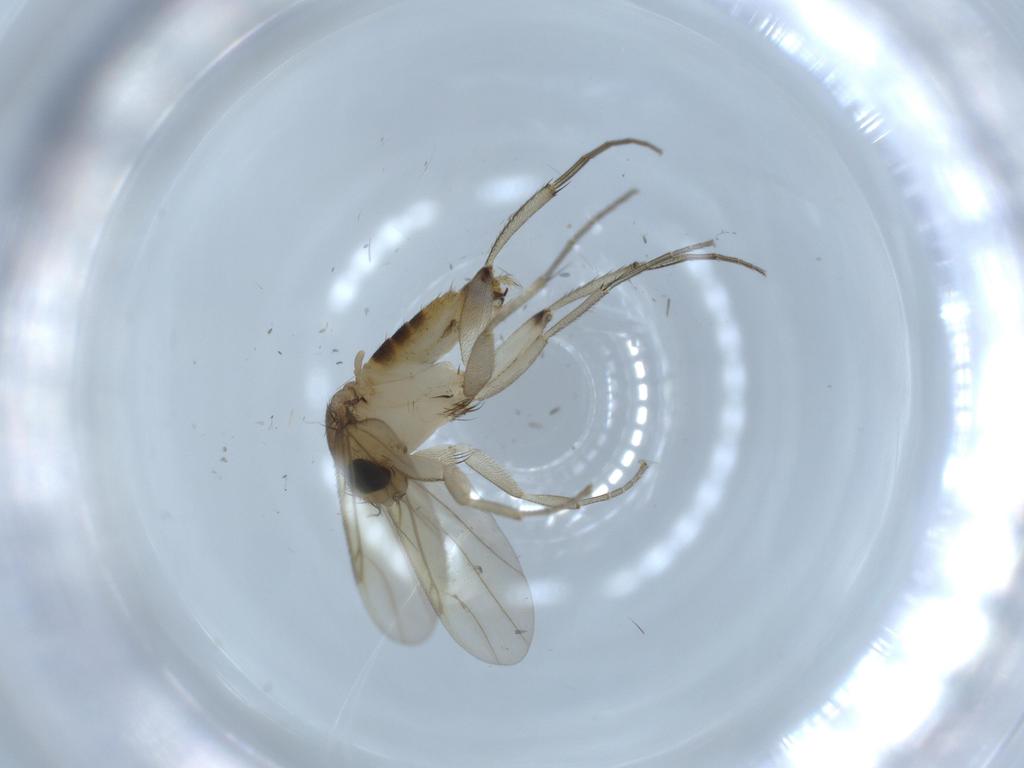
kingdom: Animalia
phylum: Arthropoda
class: Insecta
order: Diptera
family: Phoridae
